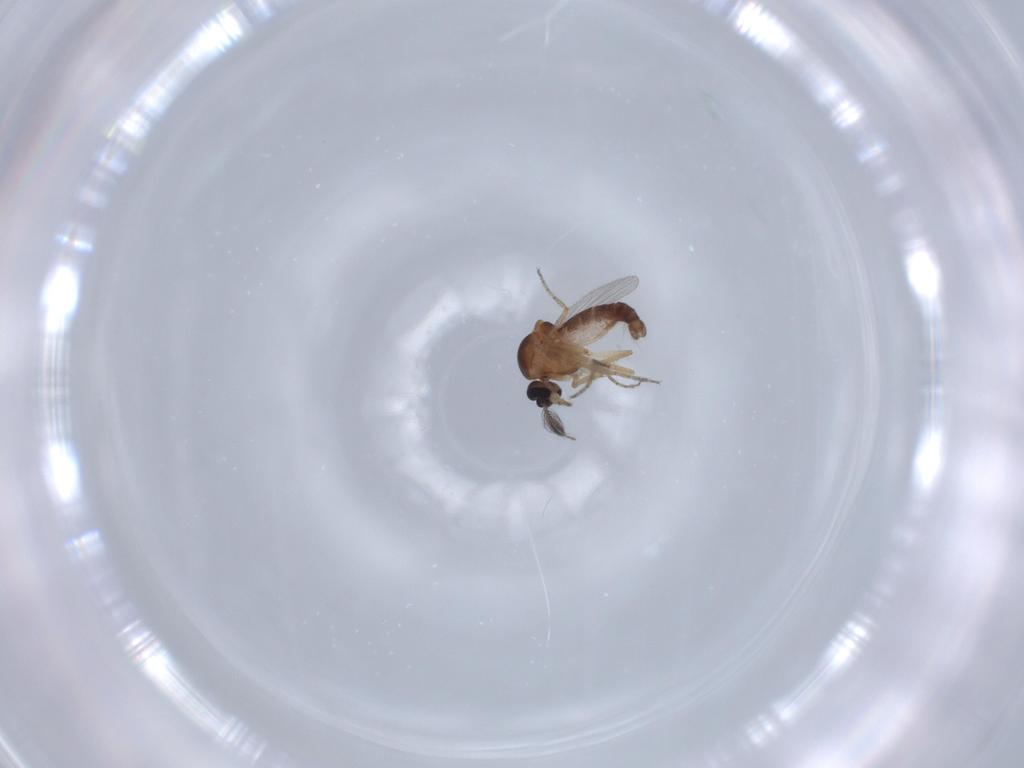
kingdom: Animalia
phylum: Arthropoda
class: Insecta
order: Diptera
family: Ceratopogonidae
